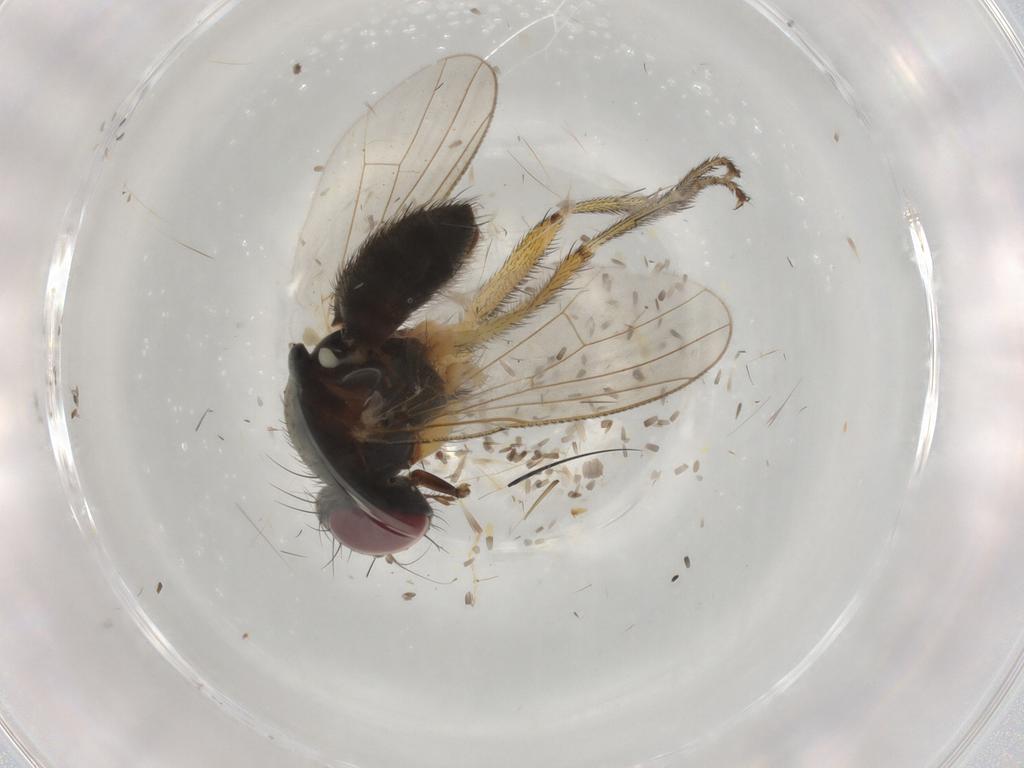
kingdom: Animalia
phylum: Arthropoda
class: Insecta
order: Diptera
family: Muscidae
